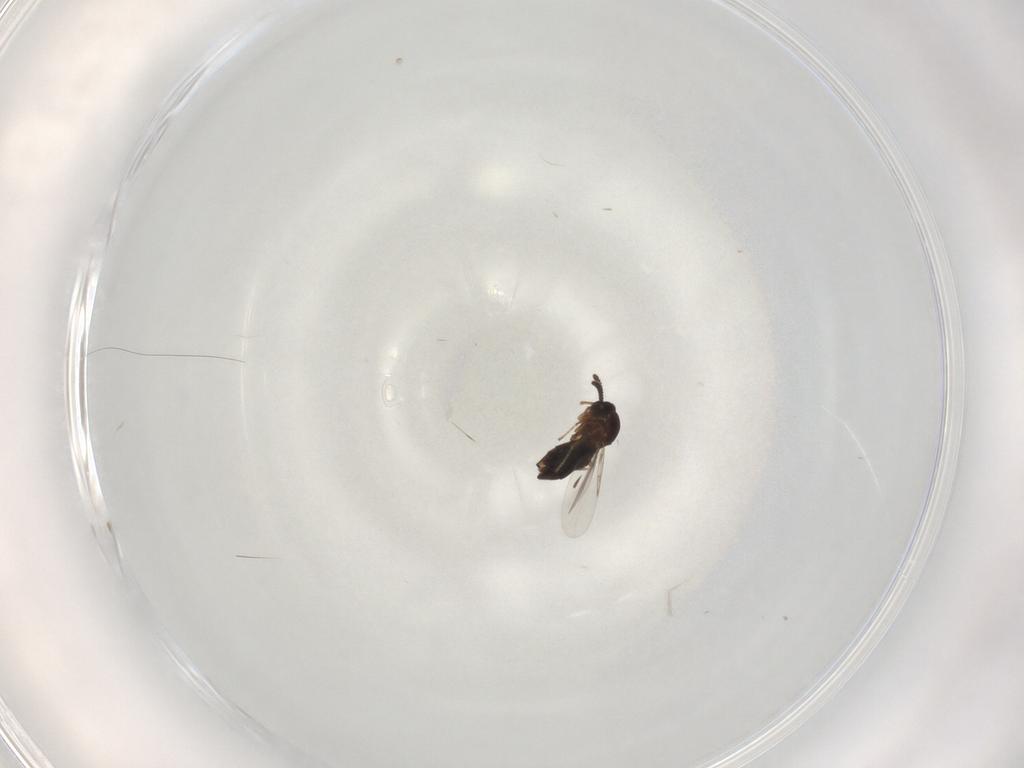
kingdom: Animalia
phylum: Arthropoda
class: Insecta
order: Diptera
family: Scatopsidae
